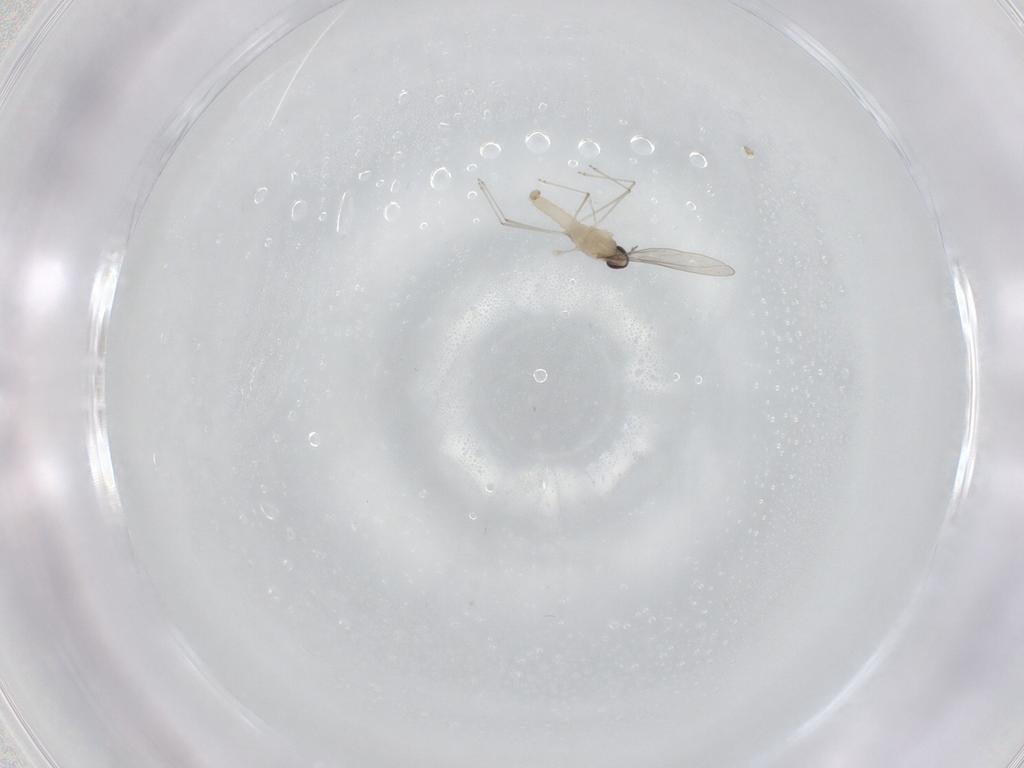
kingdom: Animalia
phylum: Arthropoda
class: Insecta
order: Diptera
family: Cecidomyiidae
